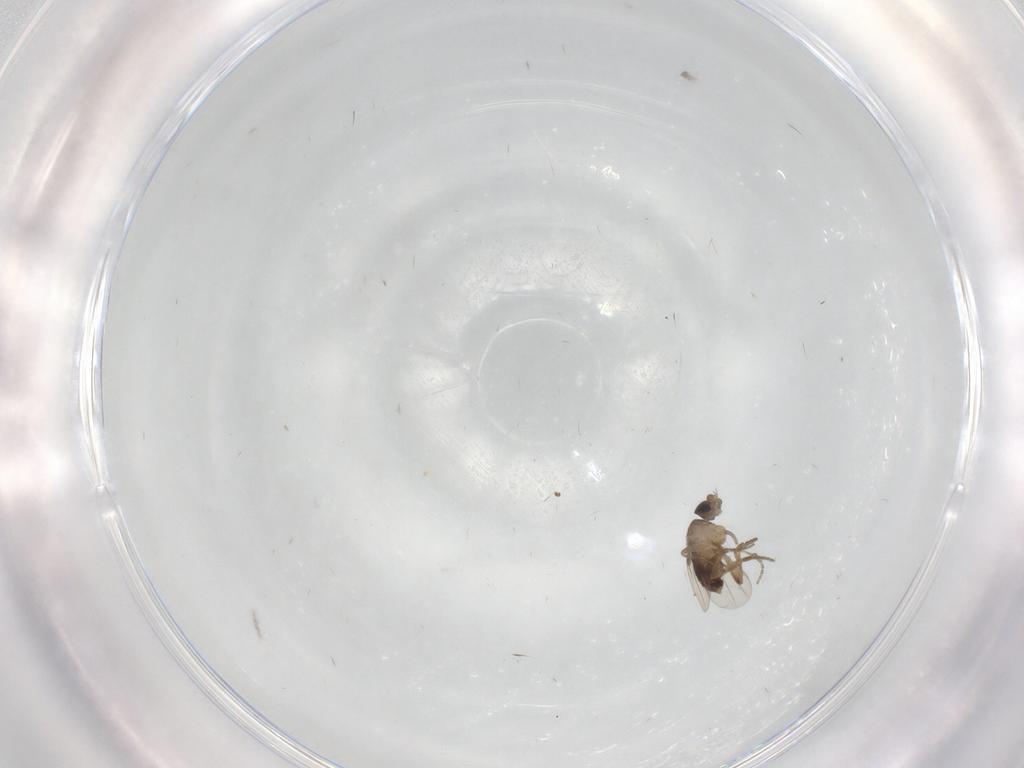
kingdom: Animalia
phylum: Arthropoda
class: Insecta
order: Diptera
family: Phoridae
